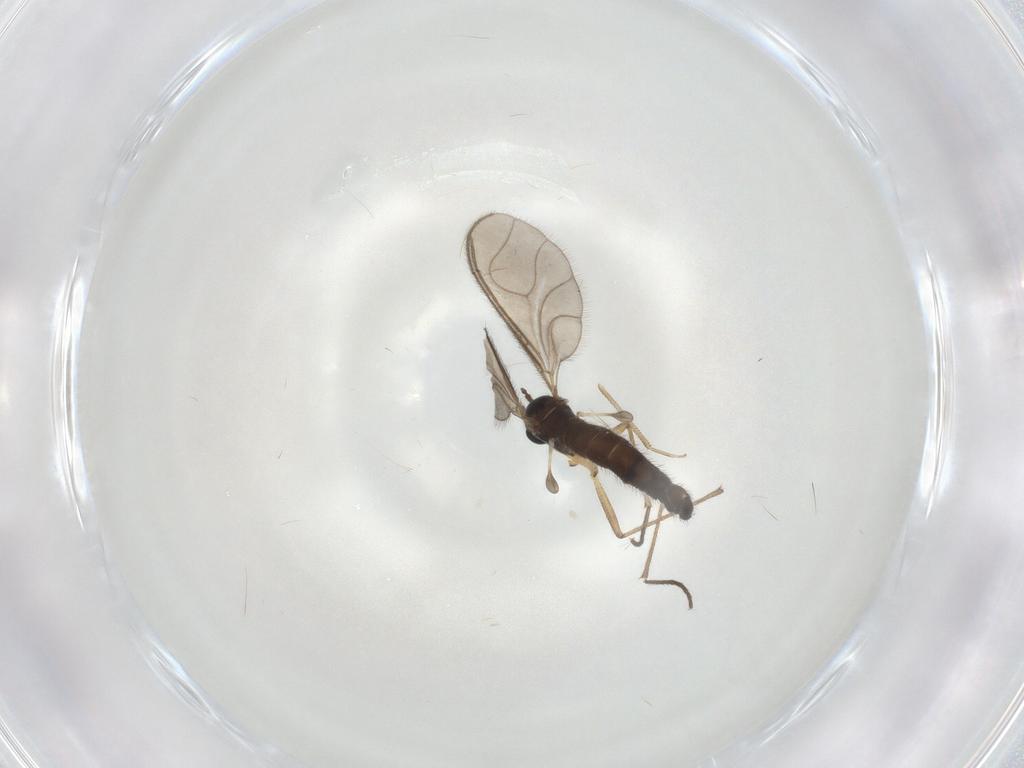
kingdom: Animalia
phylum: Arthropoda
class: Insecta
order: Diptera
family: Sciaridae
